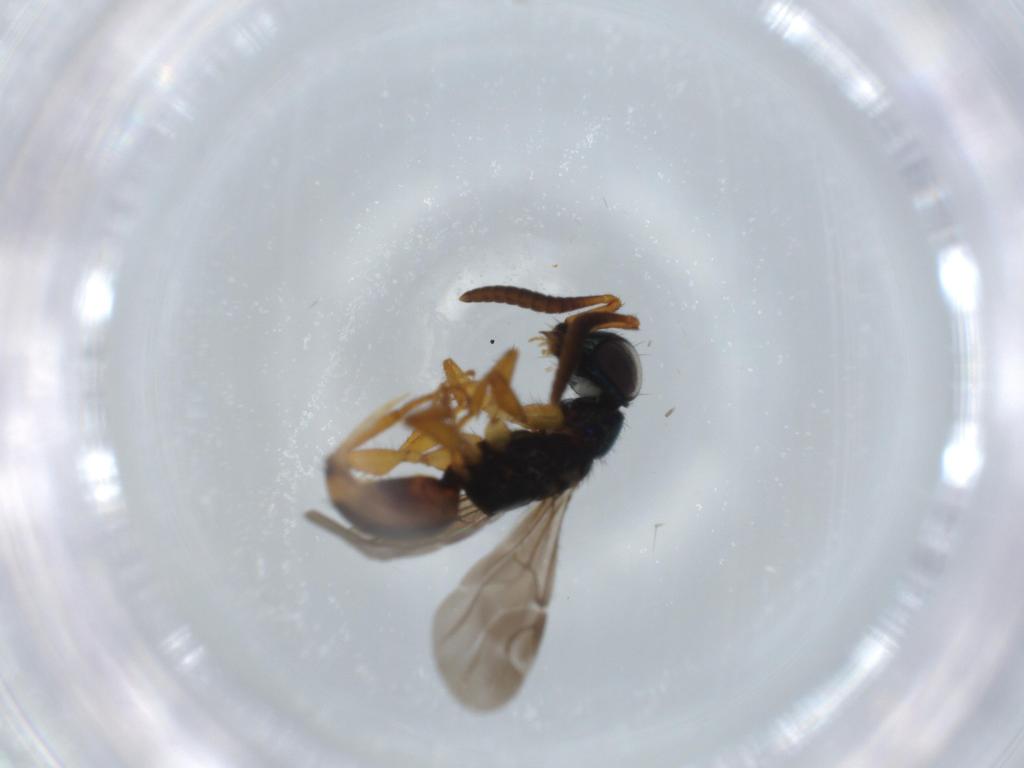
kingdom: Animalia
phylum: Arthropoda
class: Insecta
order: Hymenoptera
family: Chrysididae
